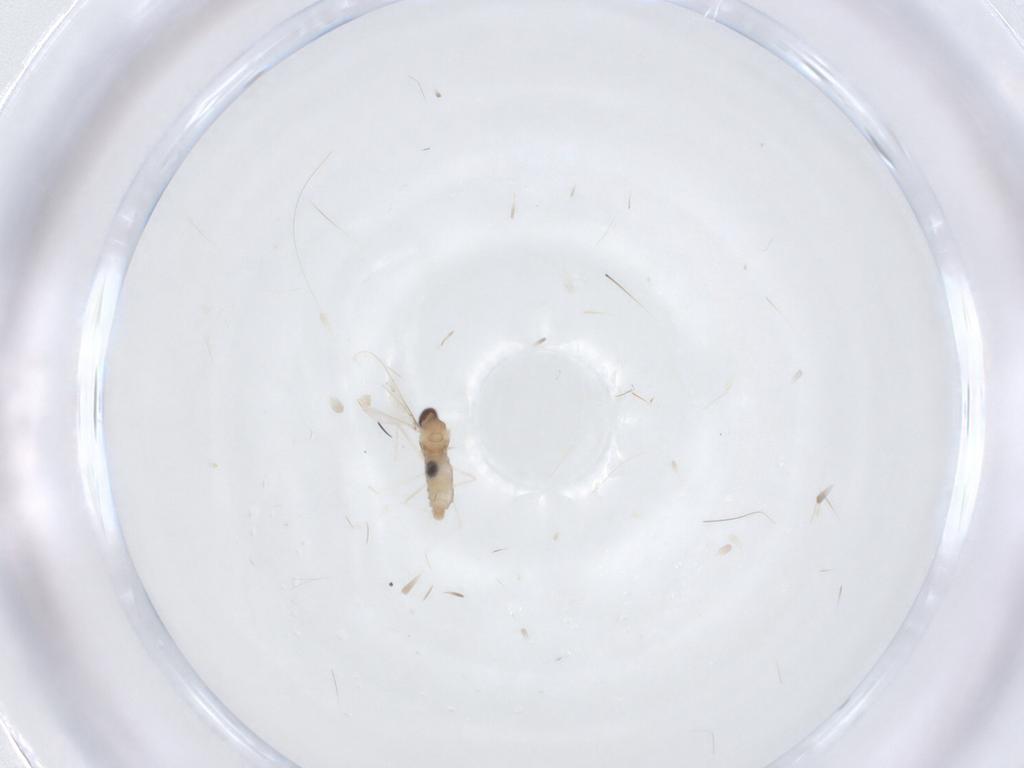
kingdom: Animalia
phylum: Arthropoda
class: Insecta
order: Diptera
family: Cecidomyiidae
